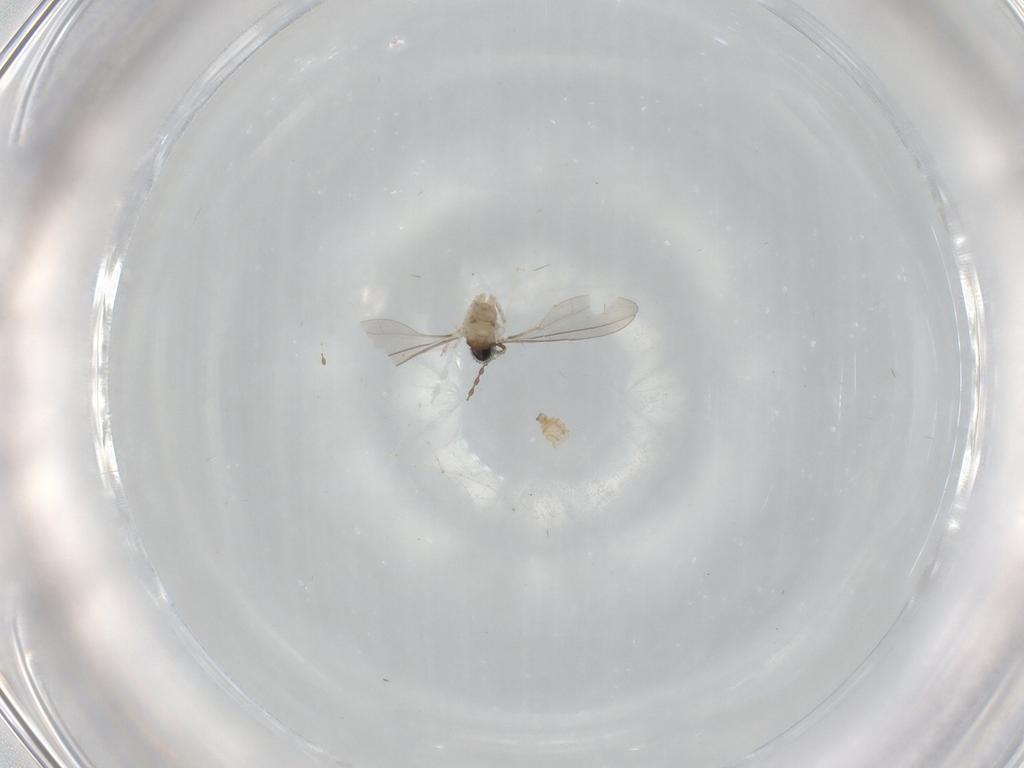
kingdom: Animalia
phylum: Arthropoda
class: Insecta
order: Diptera
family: Cecidomyiidae
